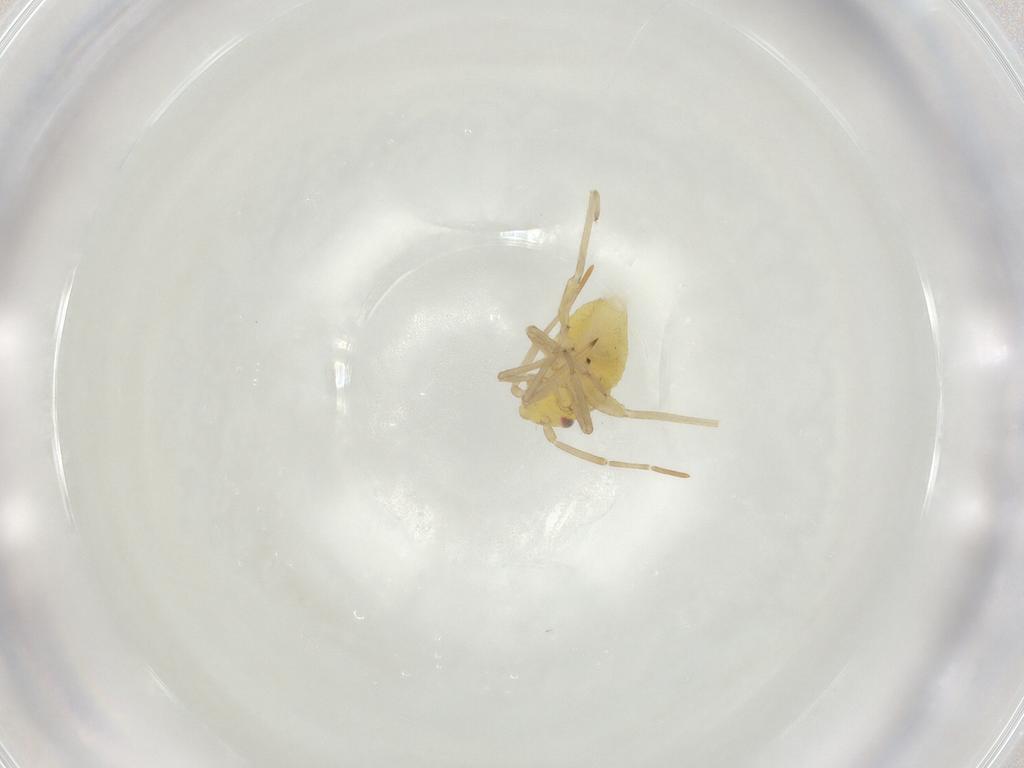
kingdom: Animalia
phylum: Arthropoda
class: Insecta
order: Hemiptera
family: Miridae
